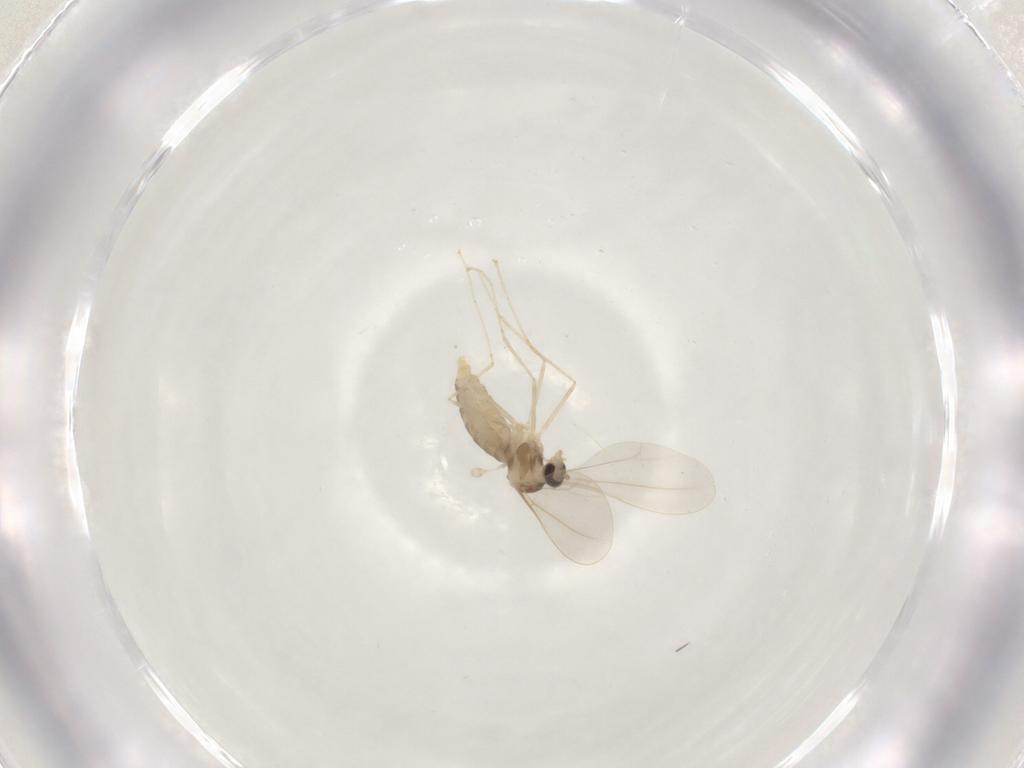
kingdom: Animalia
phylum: Arthropoda
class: Insecta
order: Diptera
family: Cecidomyiidae
